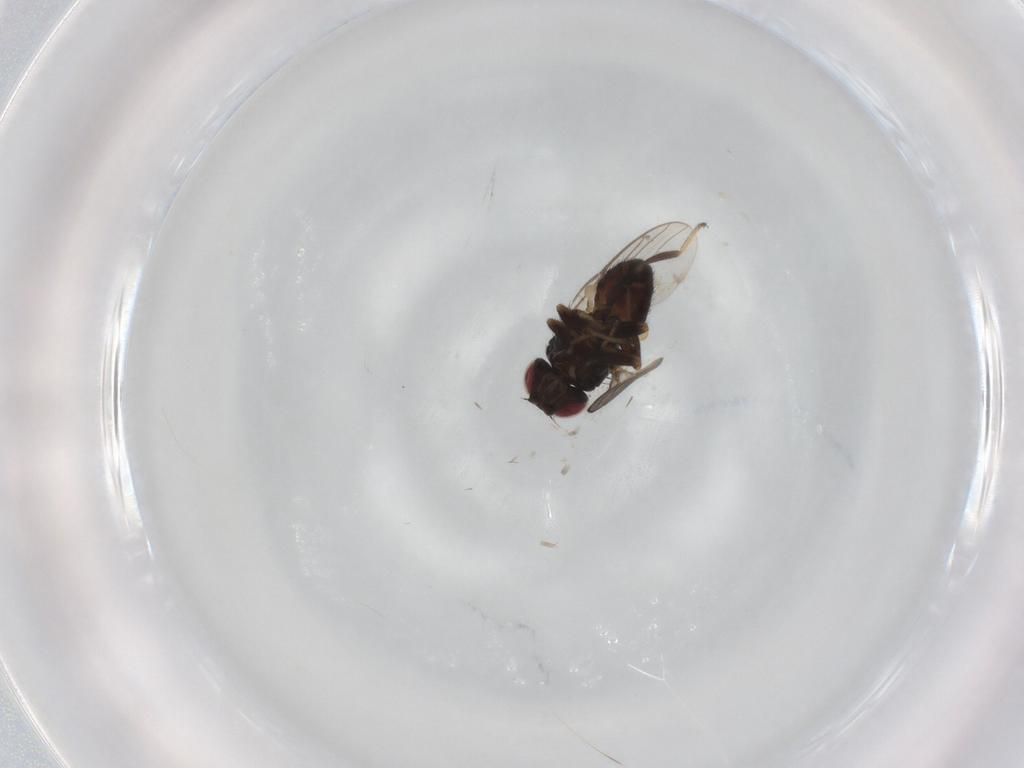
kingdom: Animalia
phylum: Arthropoda
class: Insecta
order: Diptera
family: Chloropidae
